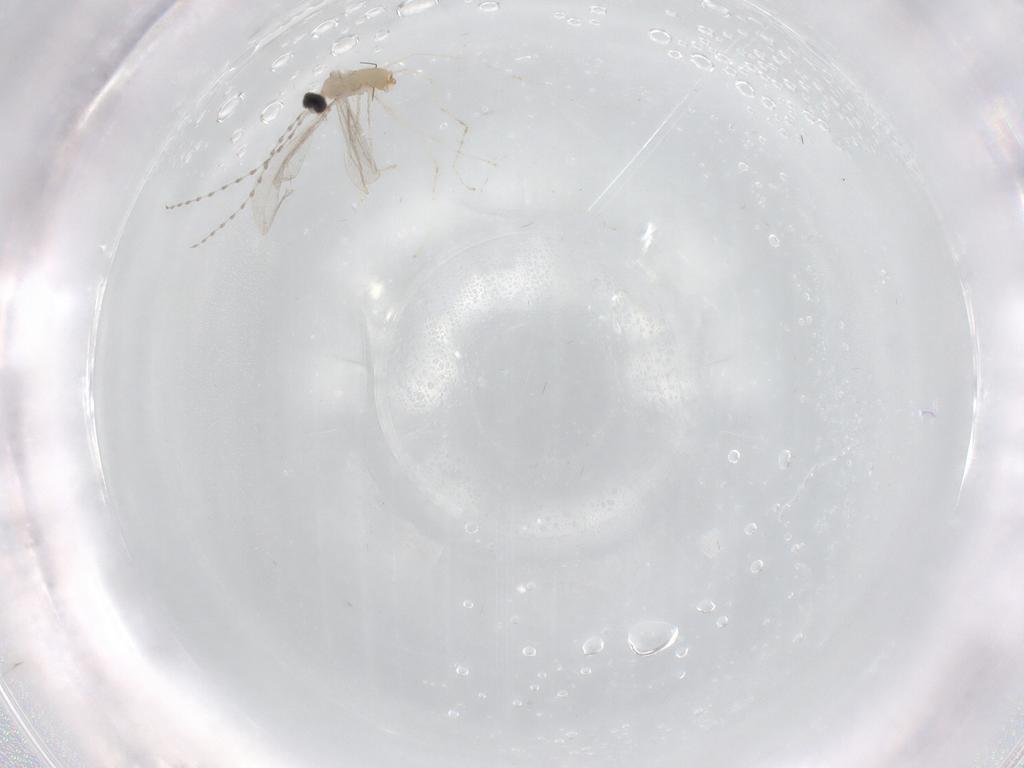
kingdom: Animalia
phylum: Arthropoda
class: Insecta
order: Diptera
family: Cecidomyiidae
